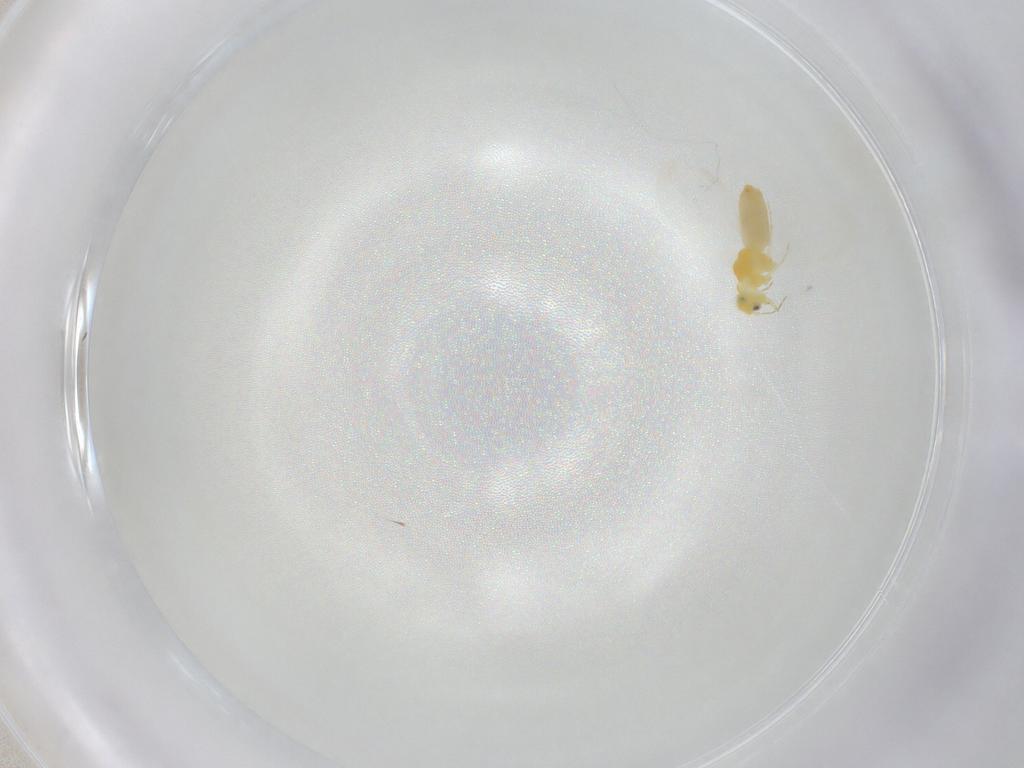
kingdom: Animalia
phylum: Arthropoda
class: Insecta
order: Hemiptera
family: Aleyrodidae
